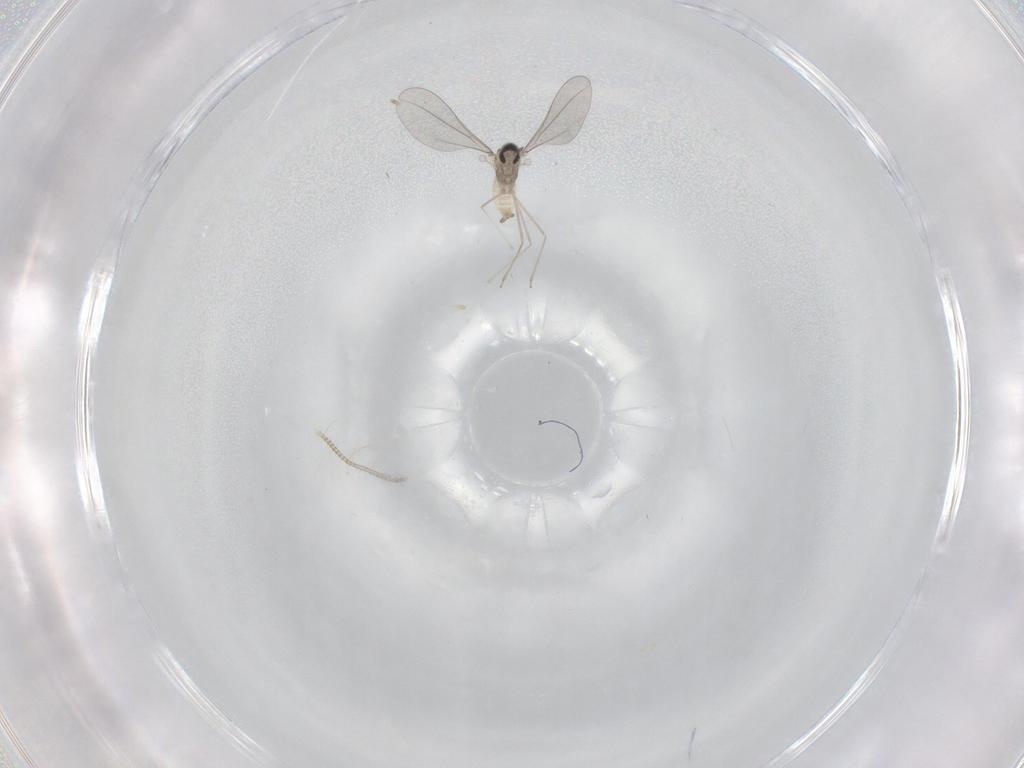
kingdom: Animalia
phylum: Arthropoda
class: Insecta
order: Diptera
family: Chironomidae
